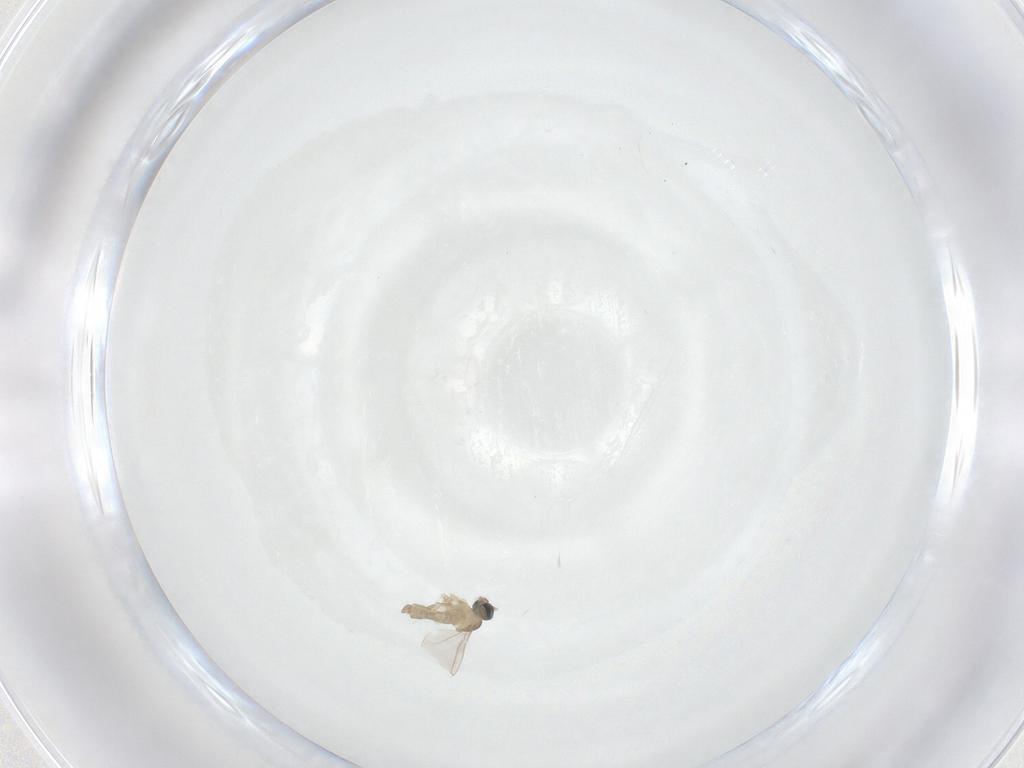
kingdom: Animalia
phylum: Arthropoda
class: Insecta
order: Diptera
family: Cecidomyiidae
